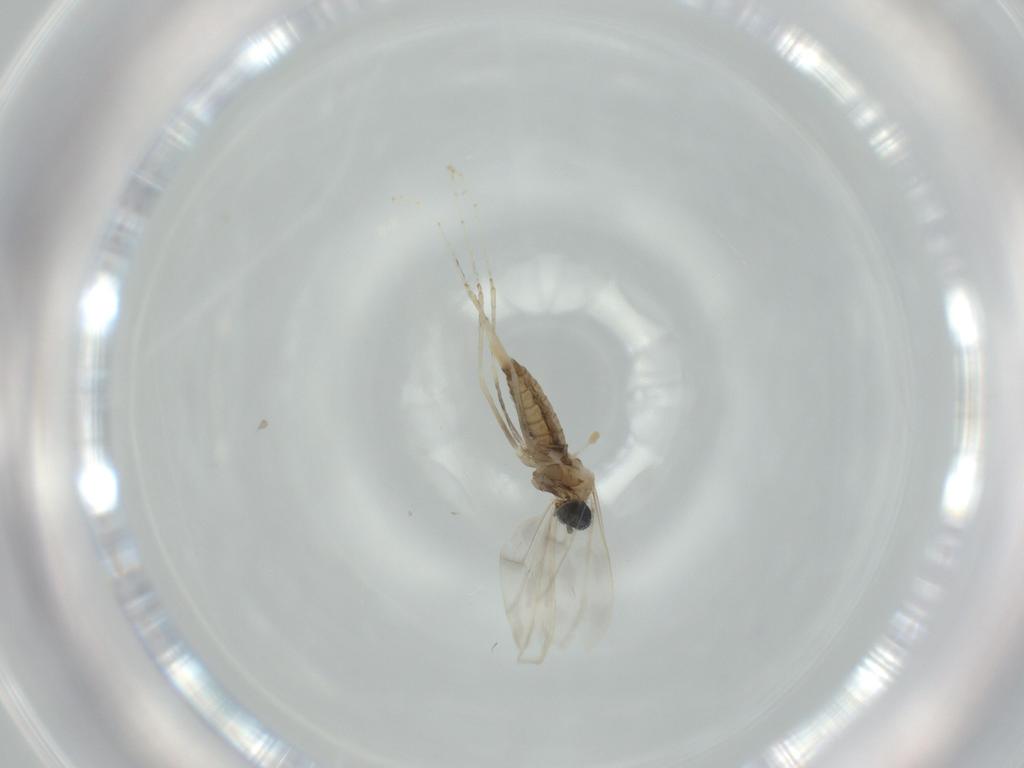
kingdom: Animalia
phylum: Arthropoda
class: Insecta
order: Diptera
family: Cecidomyiidae
